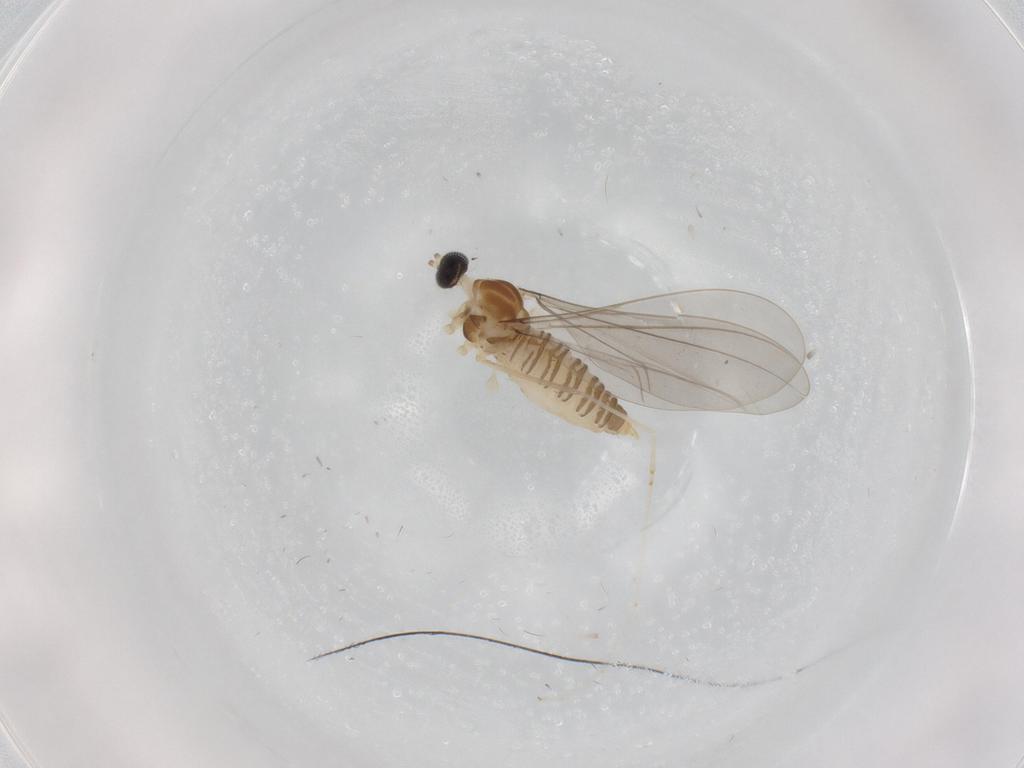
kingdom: Animalia
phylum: Arthropoda
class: Insecta
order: Diptera
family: Cecidomyiidae
